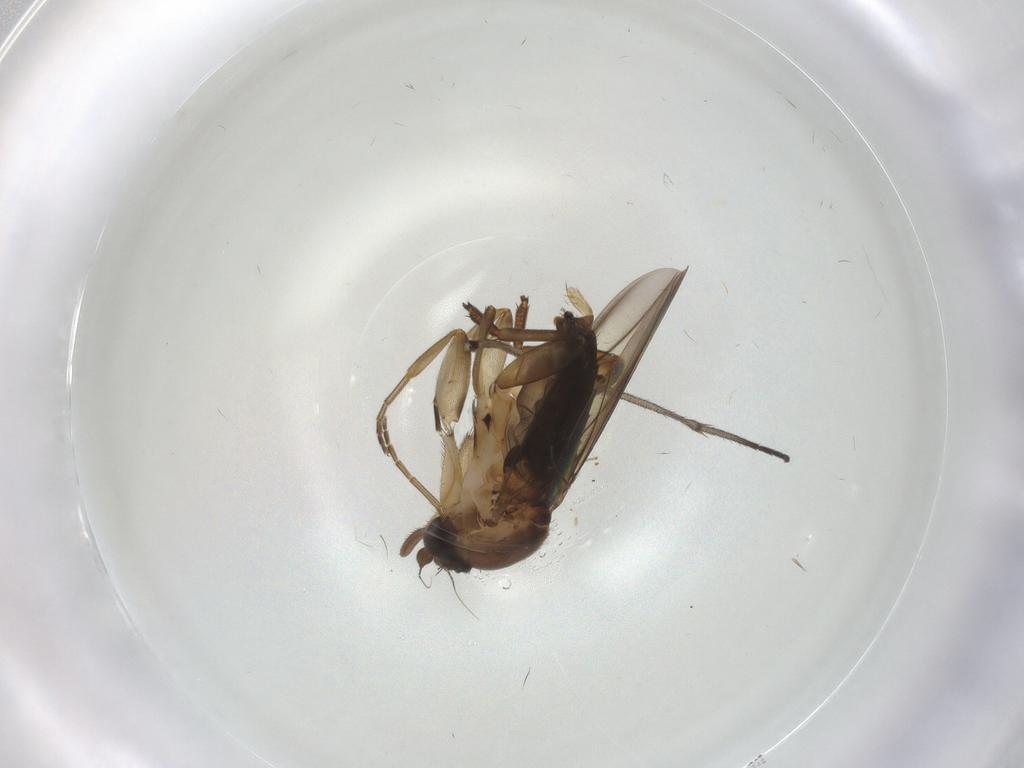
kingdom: Animalia
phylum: Arthropoda
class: Insecta
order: Diptera
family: Phoridae
